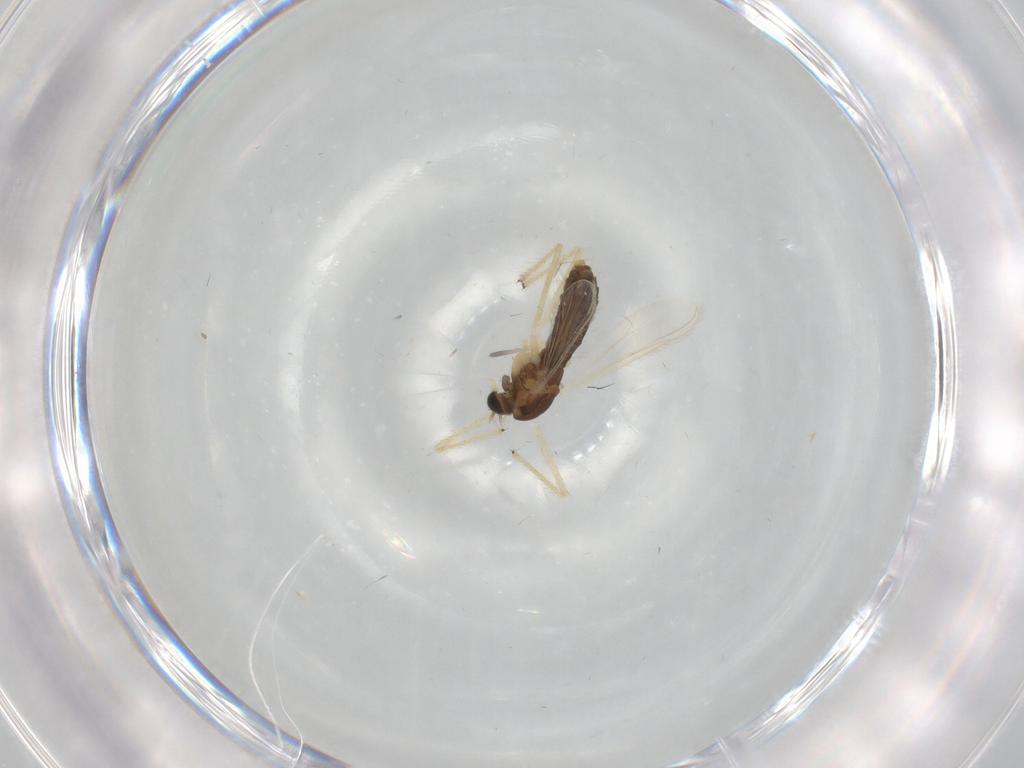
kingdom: Animalia
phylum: Arthropoda
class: Insecta
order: Diptera
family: Chironomidae
